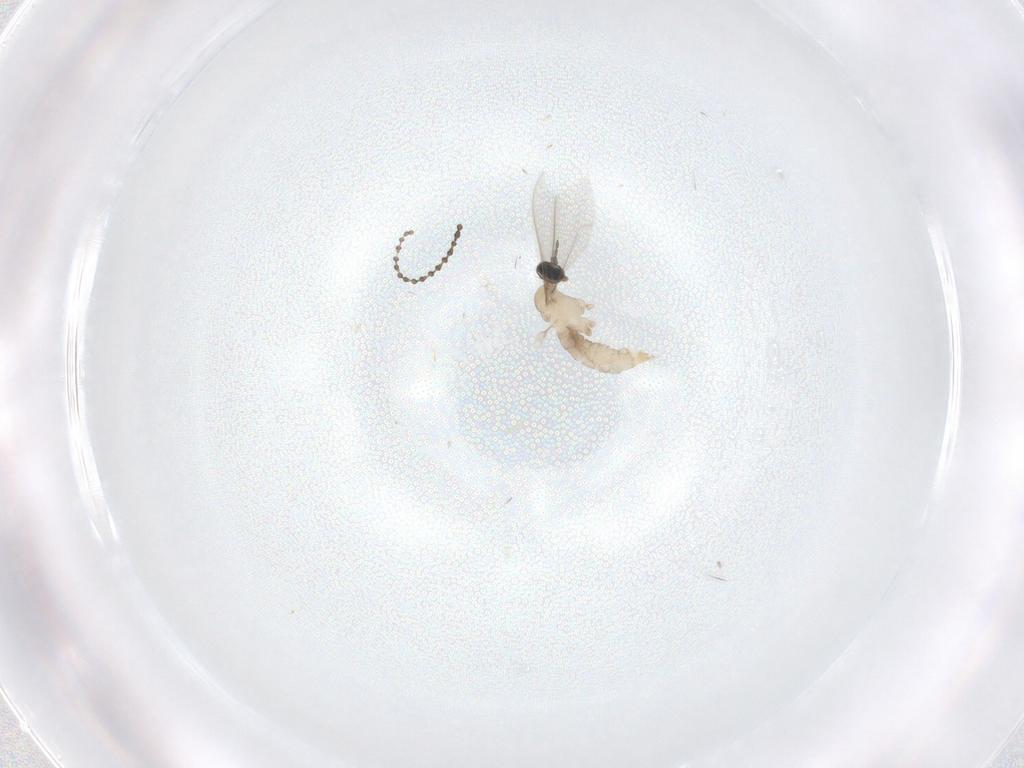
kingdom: Animalia
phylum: Arthropoda
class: Insecta
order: Diptera
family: Cecidomyiidae
